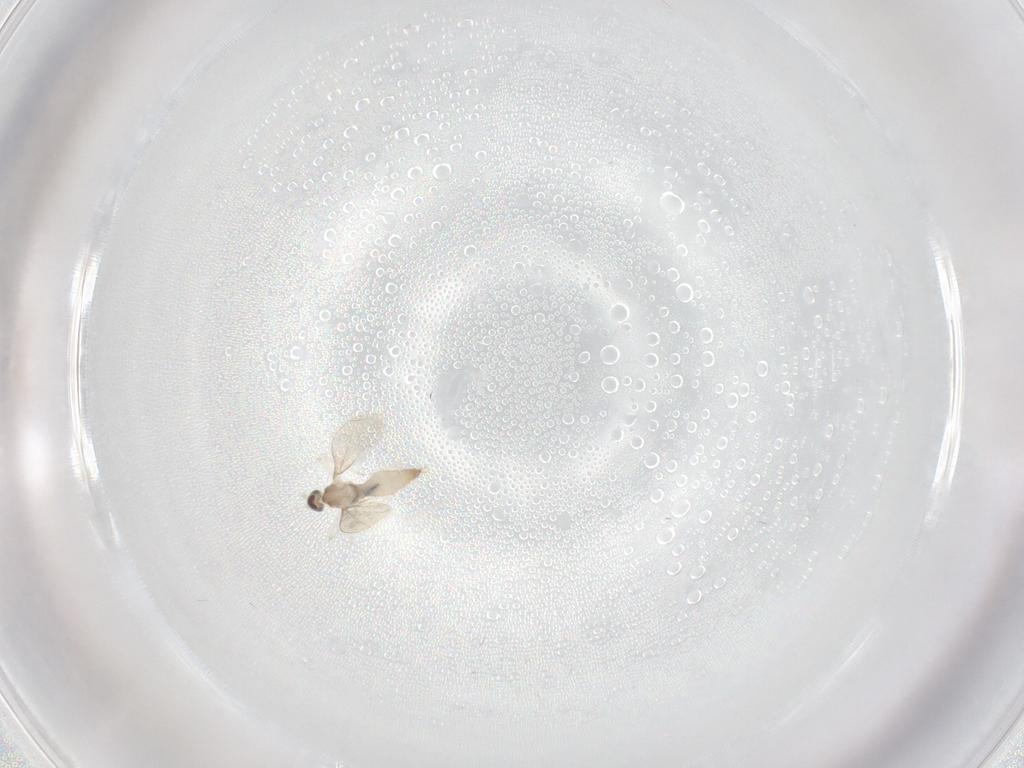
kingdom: Animalia
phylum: Arthropoda
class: Insecta
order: Diptera
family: Cecidomyiidae
